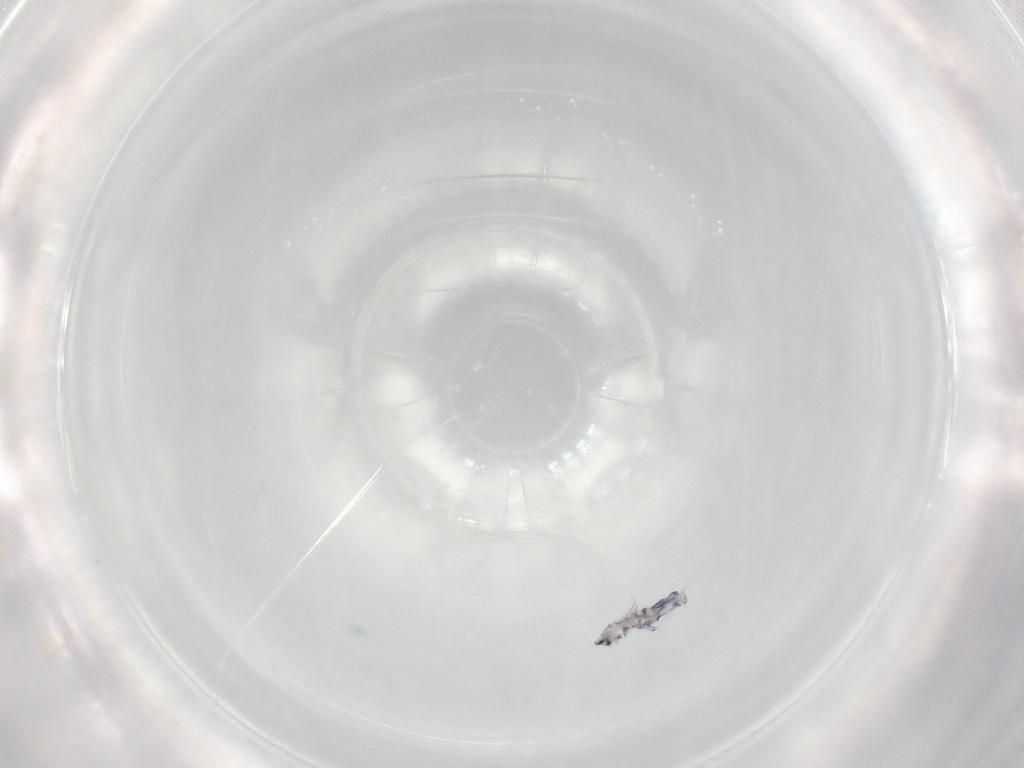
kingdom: Animalia
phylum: Arthropoda
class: Collembola
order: Entomobryomorpha
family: Entomobryidae
